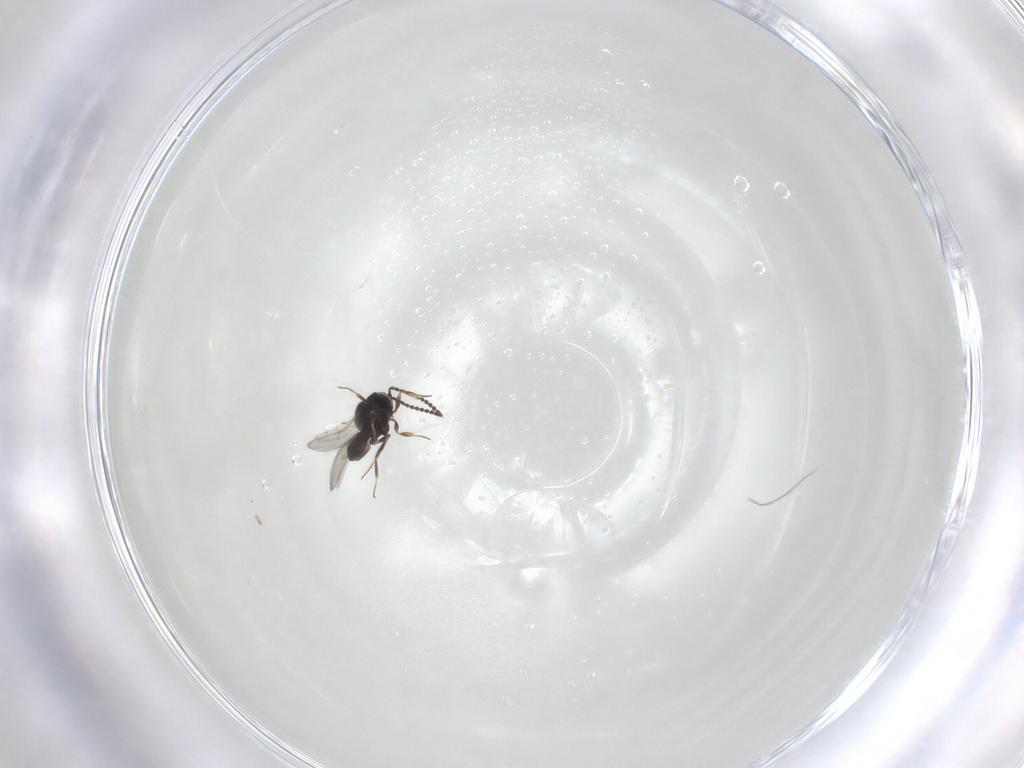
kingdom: Animalia
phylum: Arthropoda
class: Insecta
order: Hymenoptera
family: Scelionidae
